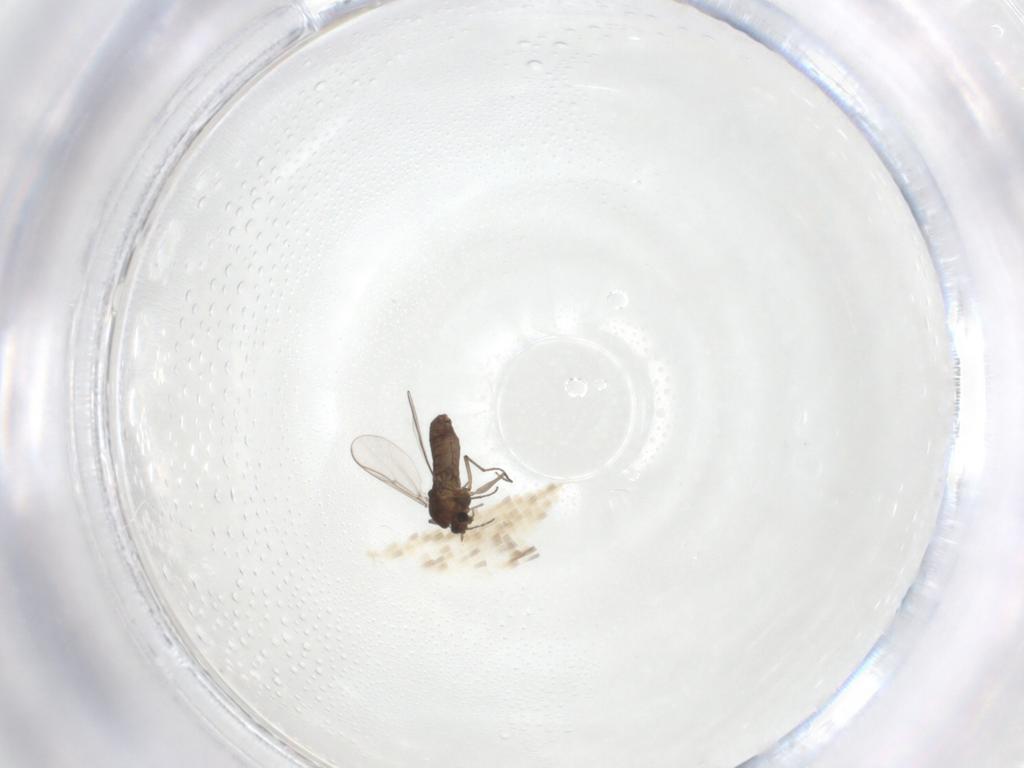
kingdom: Animalia
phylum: Arthropoda
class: Insecta
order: Diptera
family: Chironomidae
